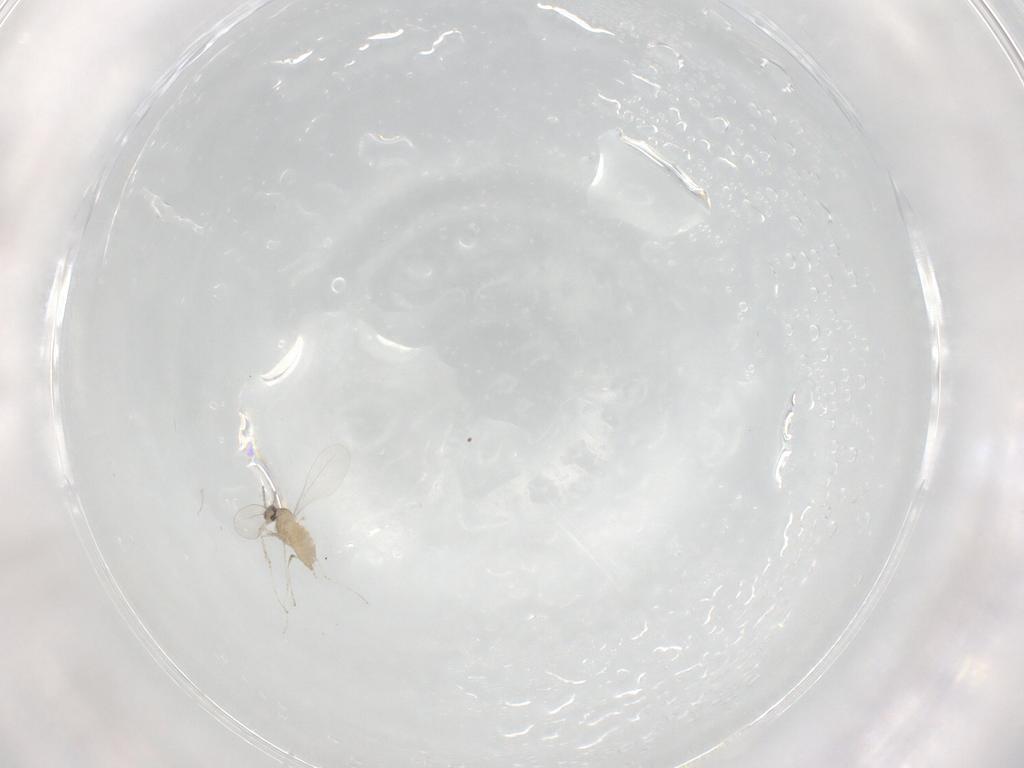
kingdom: Animalia
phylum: Arthropoda
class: Insecta
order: Diptera
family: Cecidomyiidae
